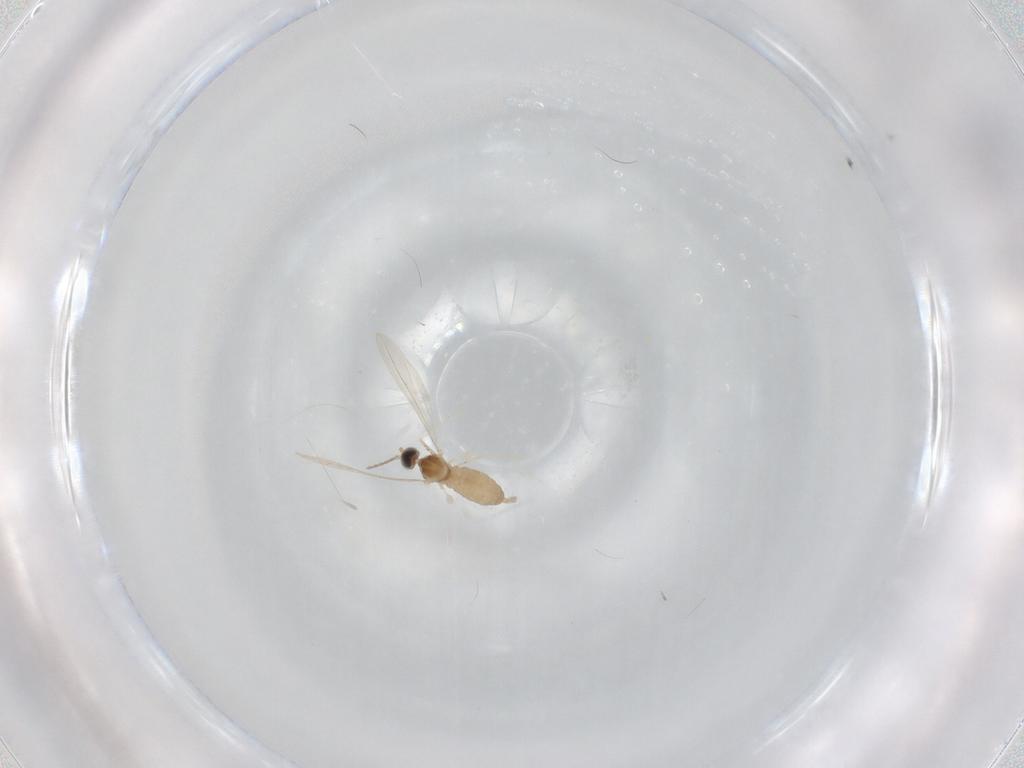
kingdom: Animalia
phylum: Arthropoda
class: Insecta
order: Diptera
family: Cecidomyiidae
